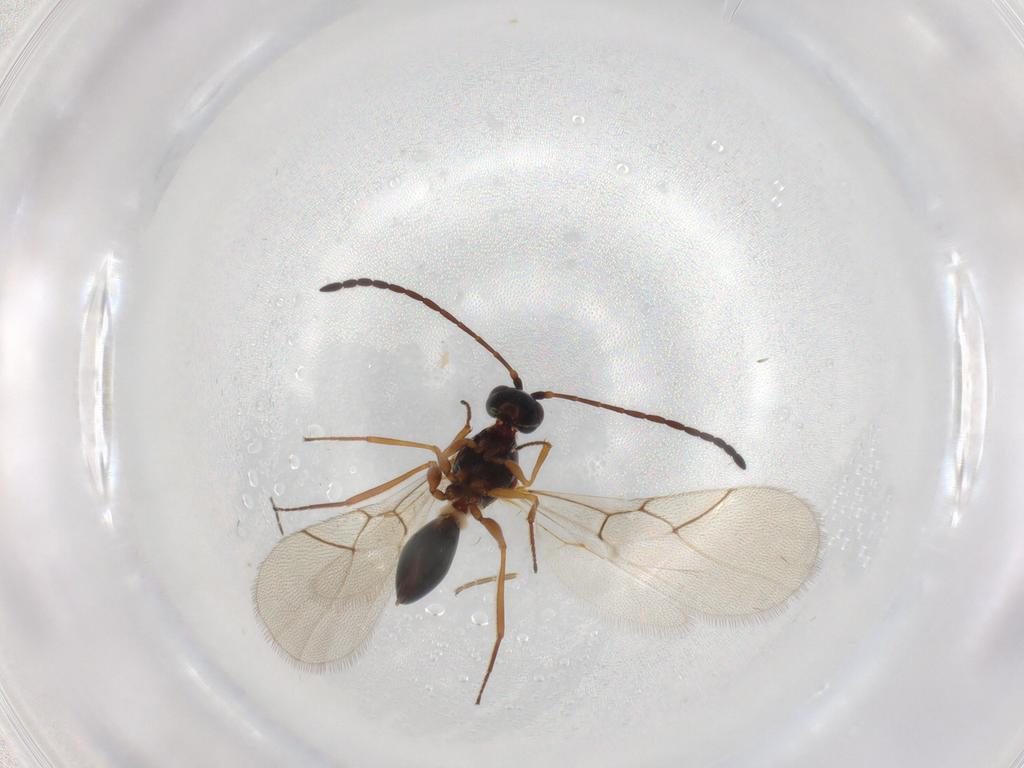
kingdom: Animalia
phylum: Arthropoda
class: Insecta
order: Hymenoptera
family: Figitidae
